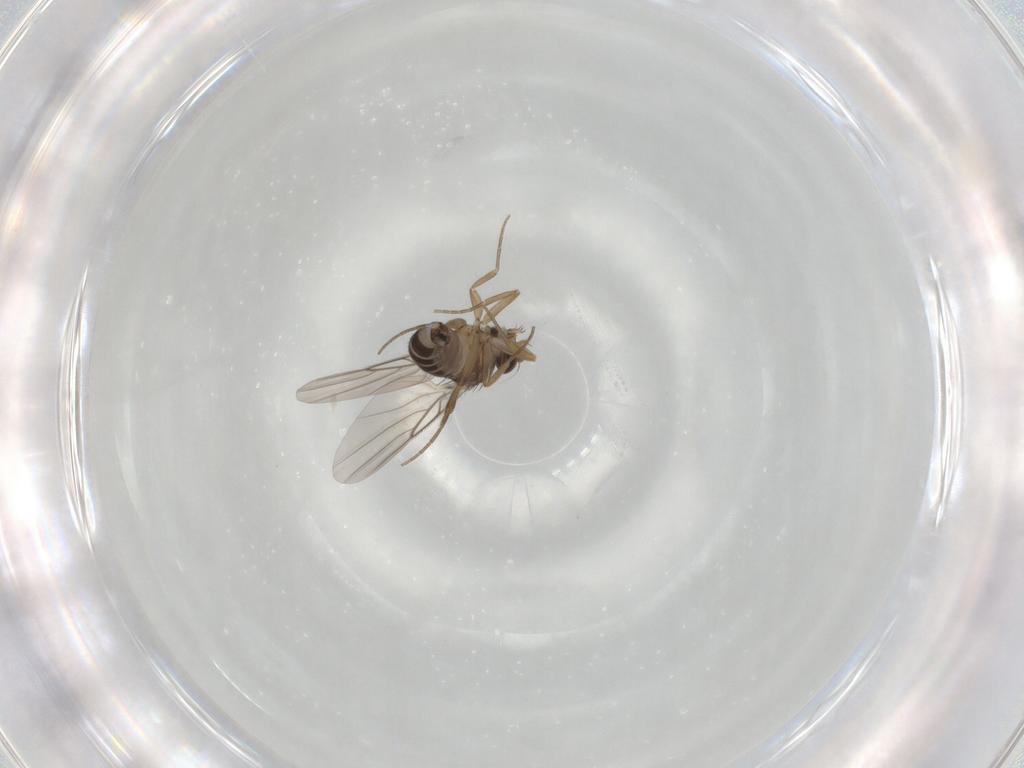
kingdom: Animalia
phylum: Arthropoda
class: Insecta
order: Diptera
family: Phoridae
